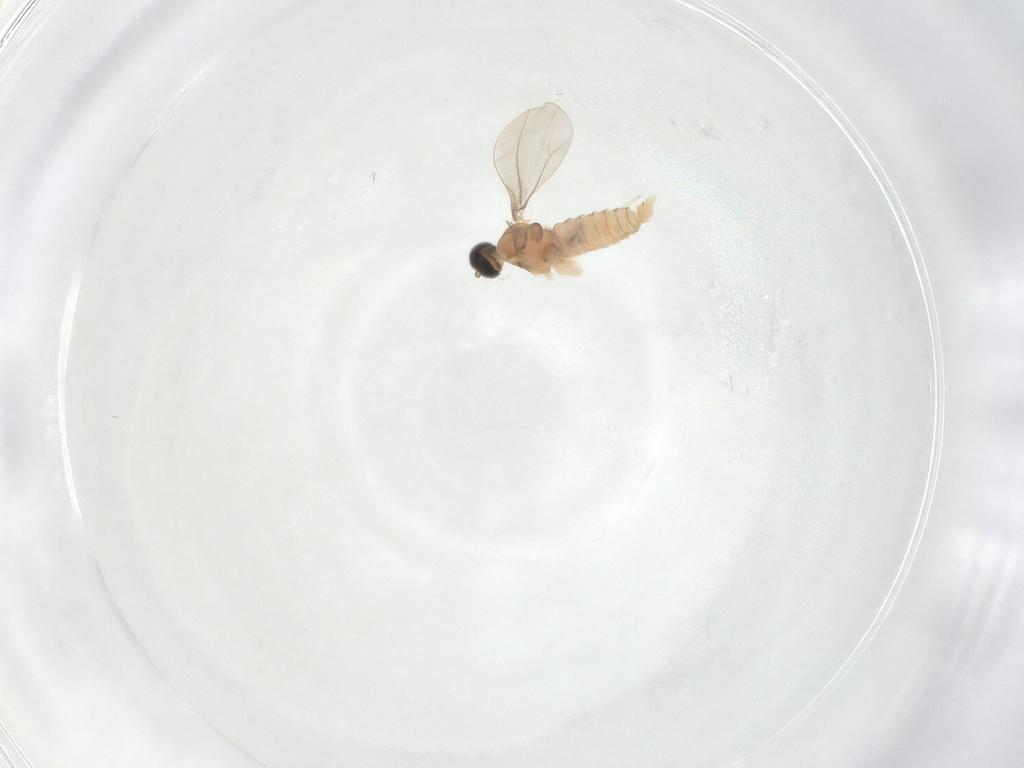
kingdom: Animalia
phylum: Arthropoda
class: Insecta
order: Diptera
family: Cecidomyiidae
